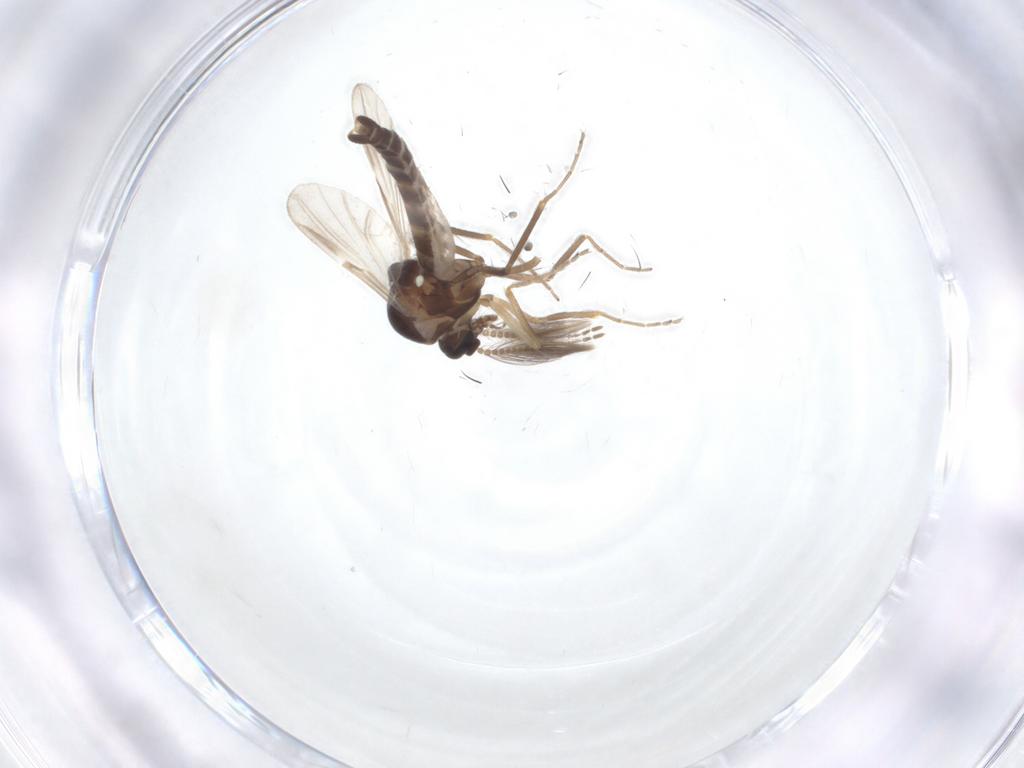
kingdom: Animalia
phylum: Arthropoda
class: Insecta
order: Diptera
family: Ceratopogonidae
